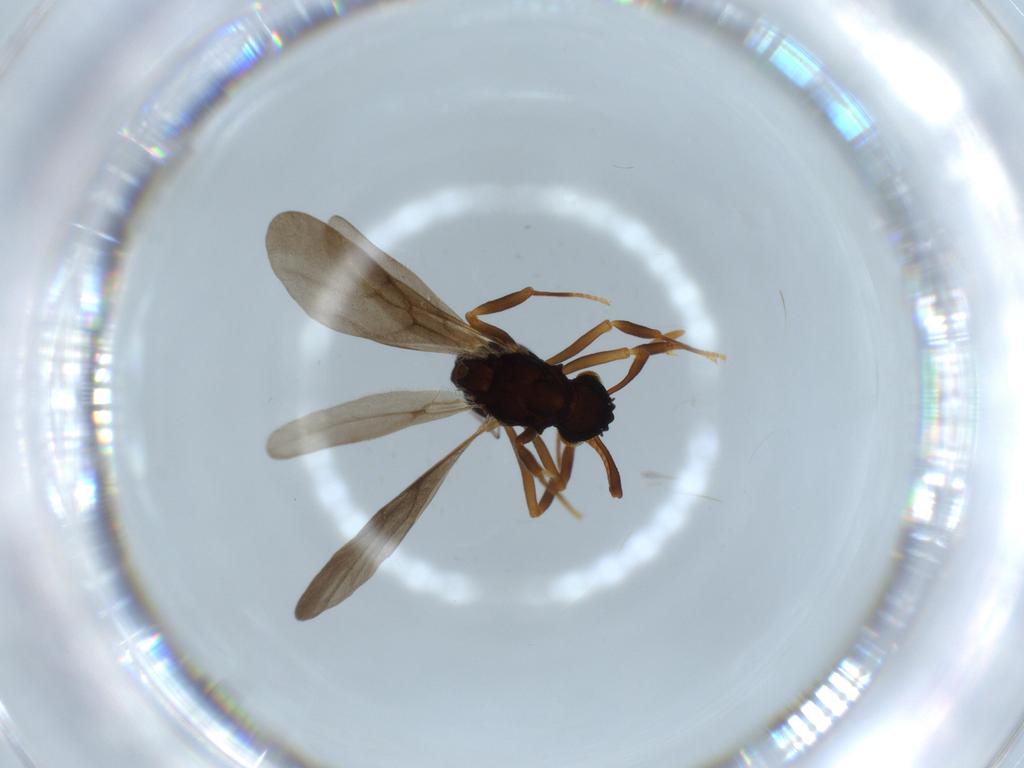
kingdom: Animalia
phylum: Arthropoda
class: Insecta
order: Hymenoptera
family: Formicidae
